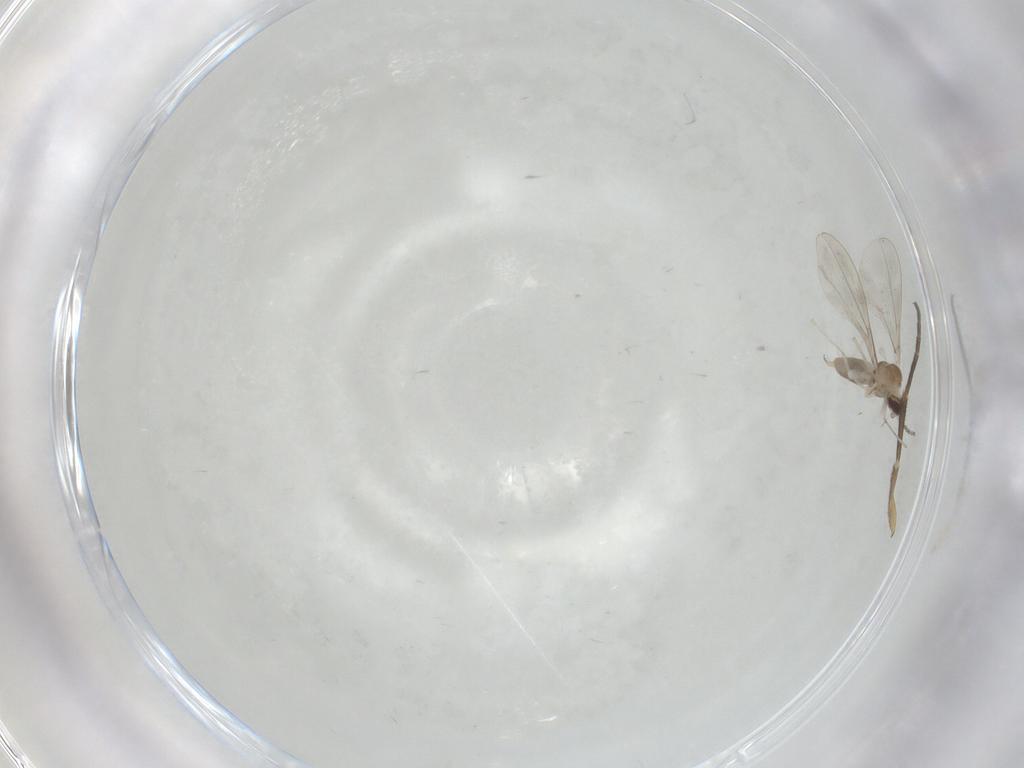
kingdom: Animalia
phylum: Arthropoda
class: Insecta
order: Diptera
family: Cecidomyiidae
